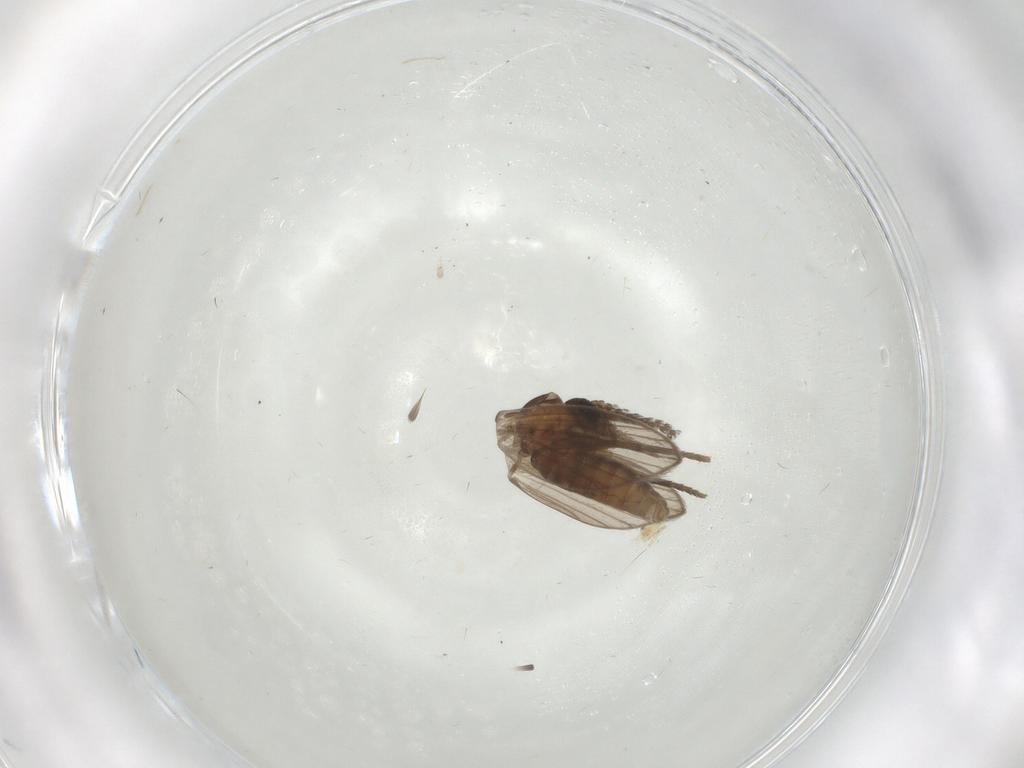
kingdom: Animalia
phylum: Arthropoda
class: Insecta
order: Diptera
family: Psychodidae
